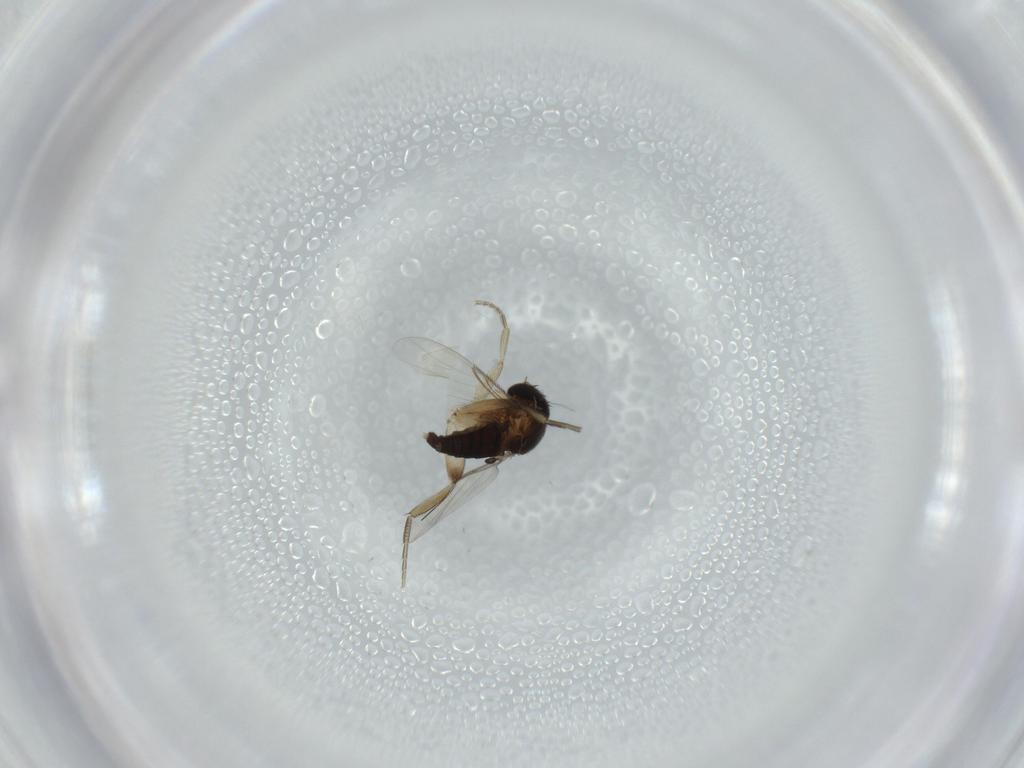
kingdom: Animalia
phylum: Arthropoda
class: Insecta
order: Diptera
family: Phoridae
